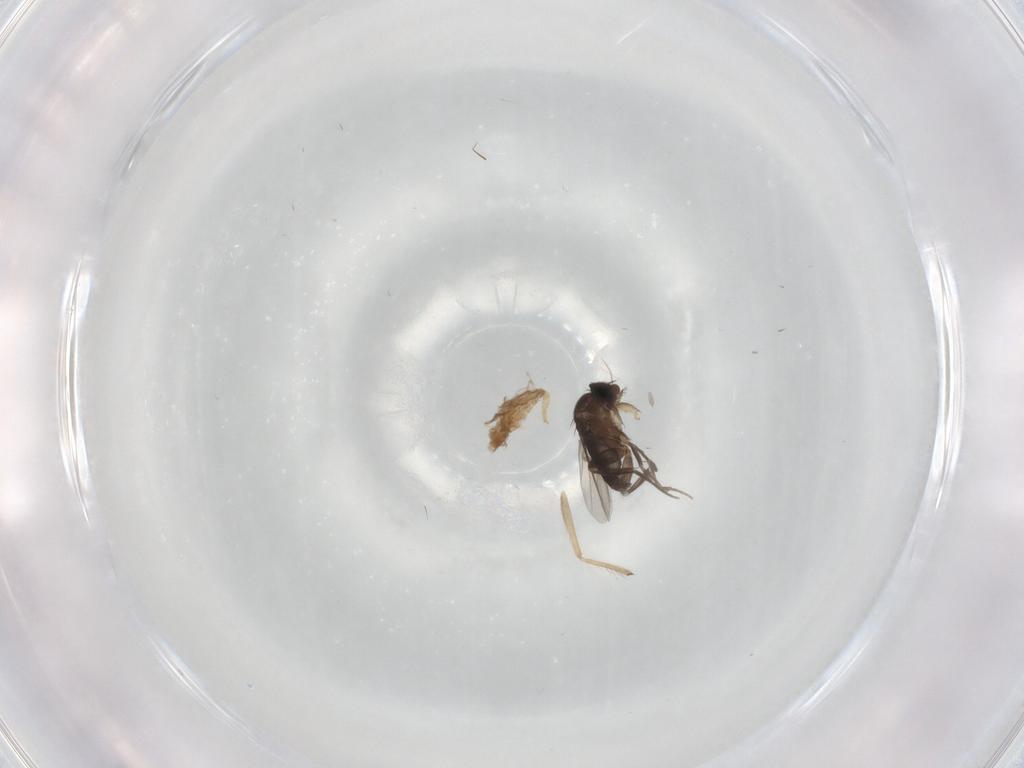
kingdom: Animalia
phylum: Arthropoda
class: Insecta
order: Diptera
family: Phoridae
